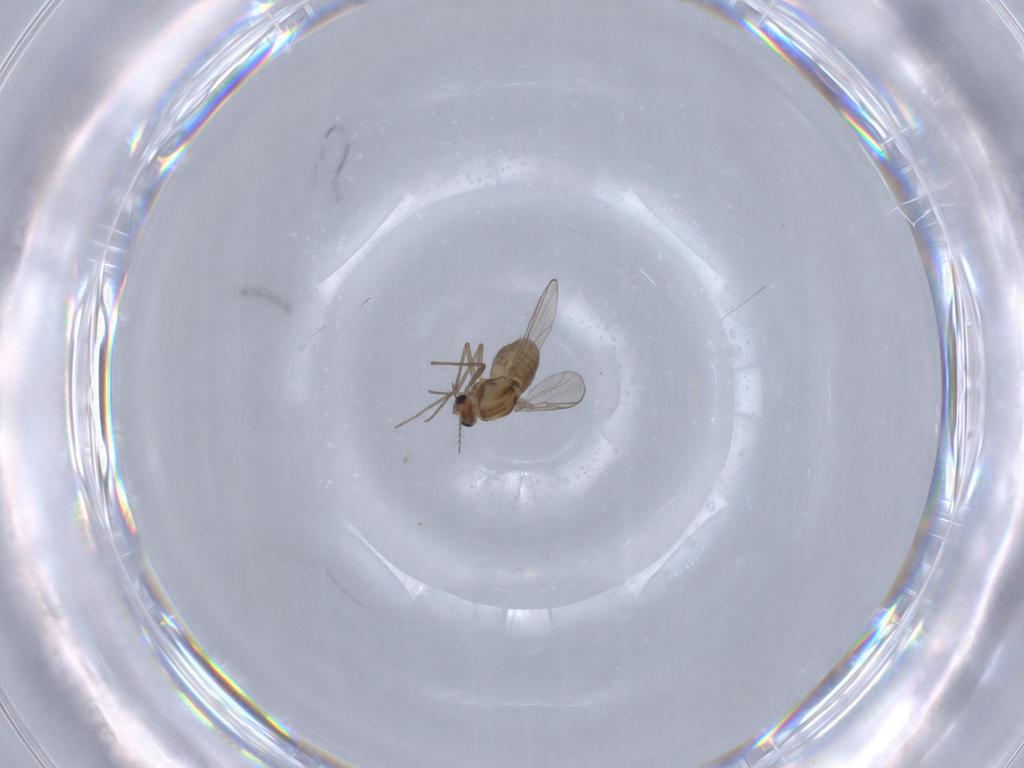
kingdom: Animalia
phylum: Arthropoda
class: Insecta
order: Diptera
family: Chironomidae
